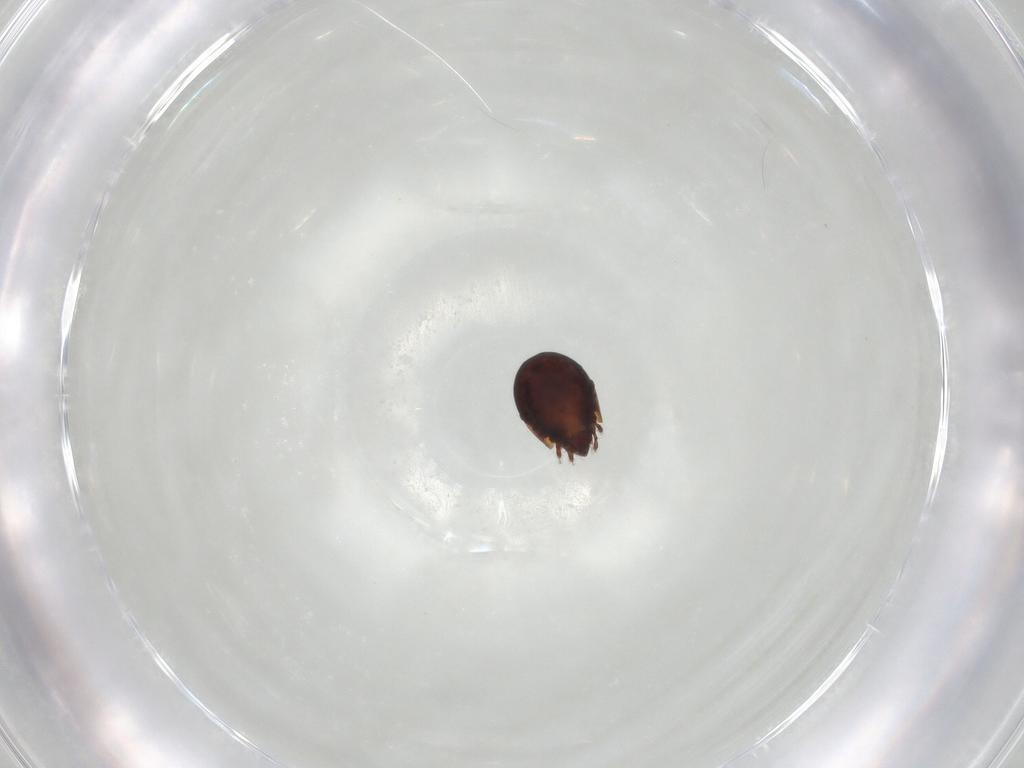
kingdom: Animalia
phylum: Arthropoda
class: Arachnida
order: Sarcoptiformes
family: Humerobatidae
